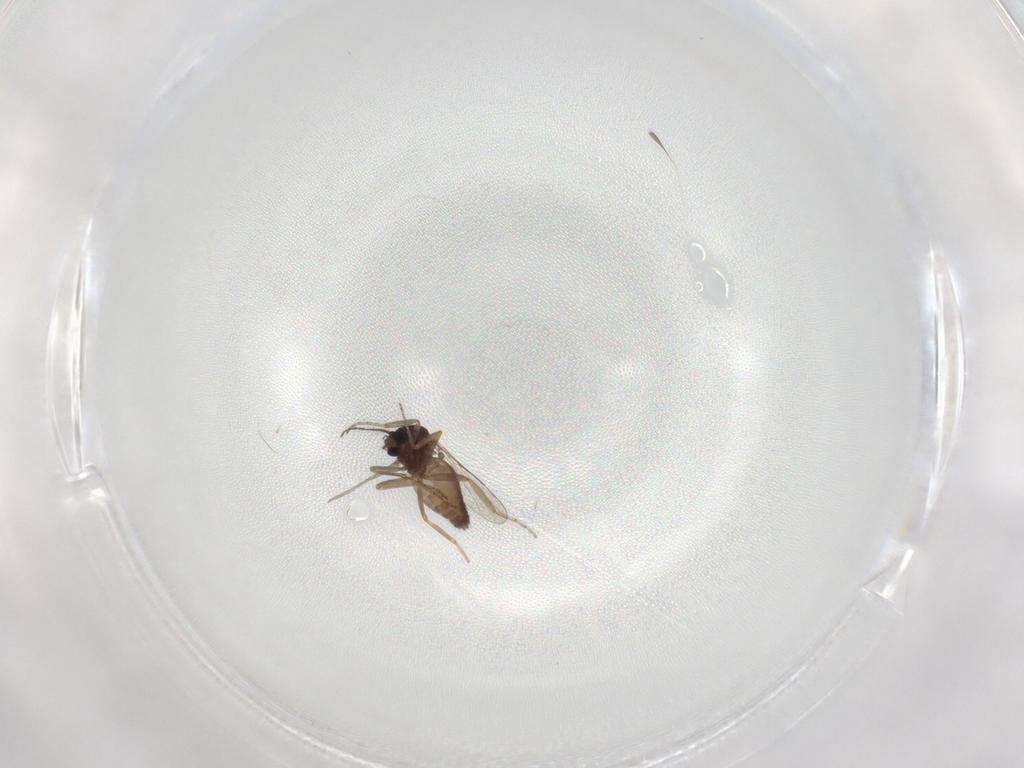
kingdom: Animalia
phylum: Arthropoda
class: Insecta
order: Diptera
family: Ceratopogonidae
